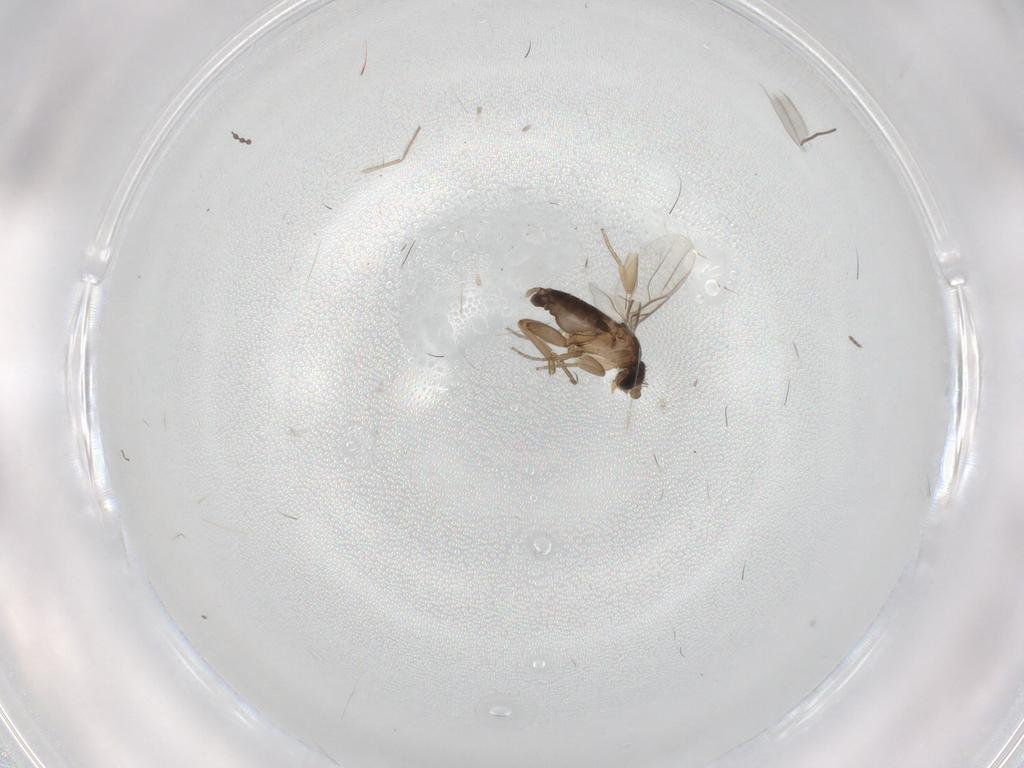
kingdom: Animalia
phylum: Arthropoda
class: Insecta
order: Diptera
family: Phoridae
